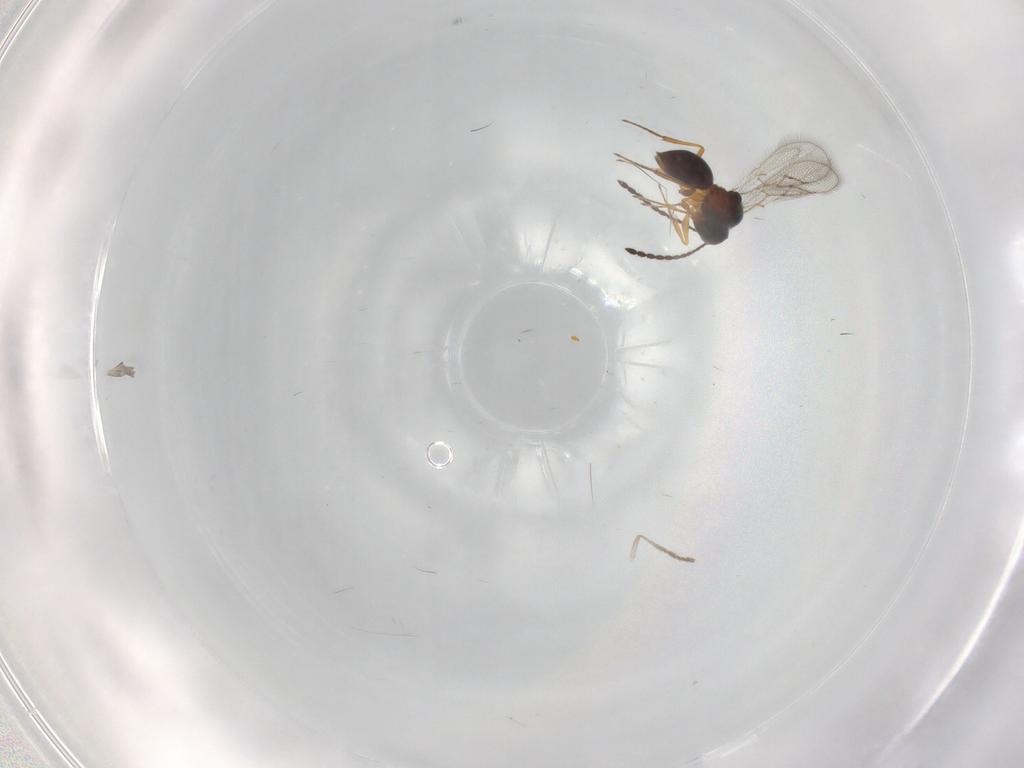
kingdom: Animalia
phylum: Arthropoda
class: Insecta
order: Hymenoptera
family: Figitidae
